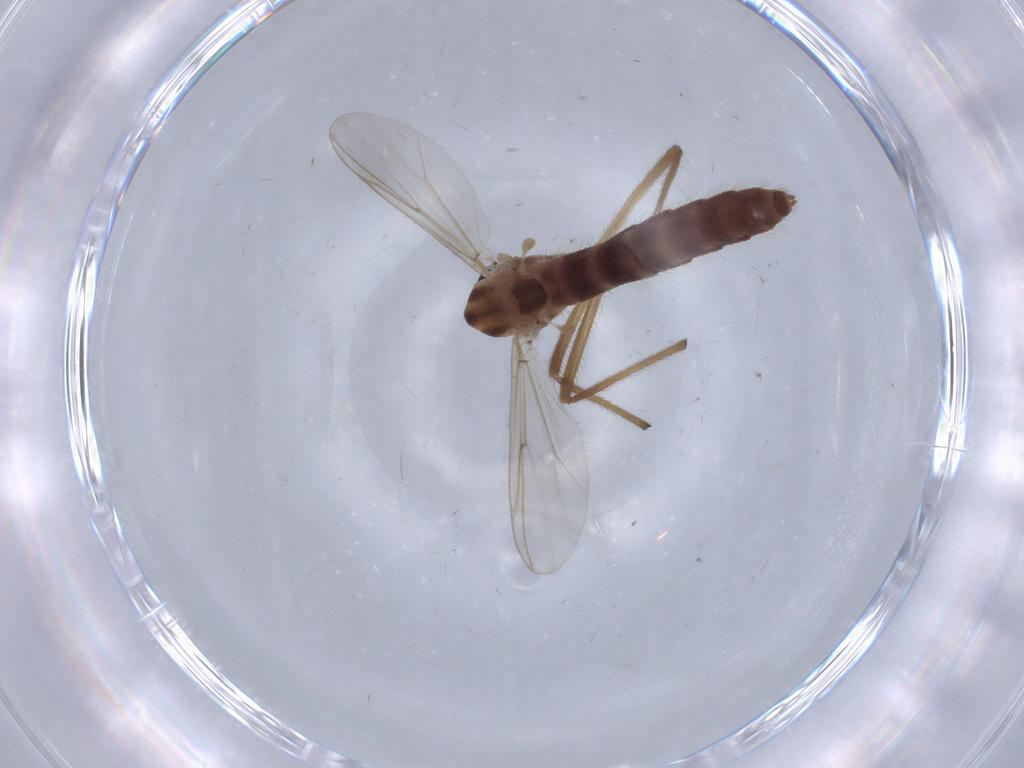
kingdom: Animalia
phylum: Arthropoda
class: Insecta
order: Diptera
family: Chironomidae
